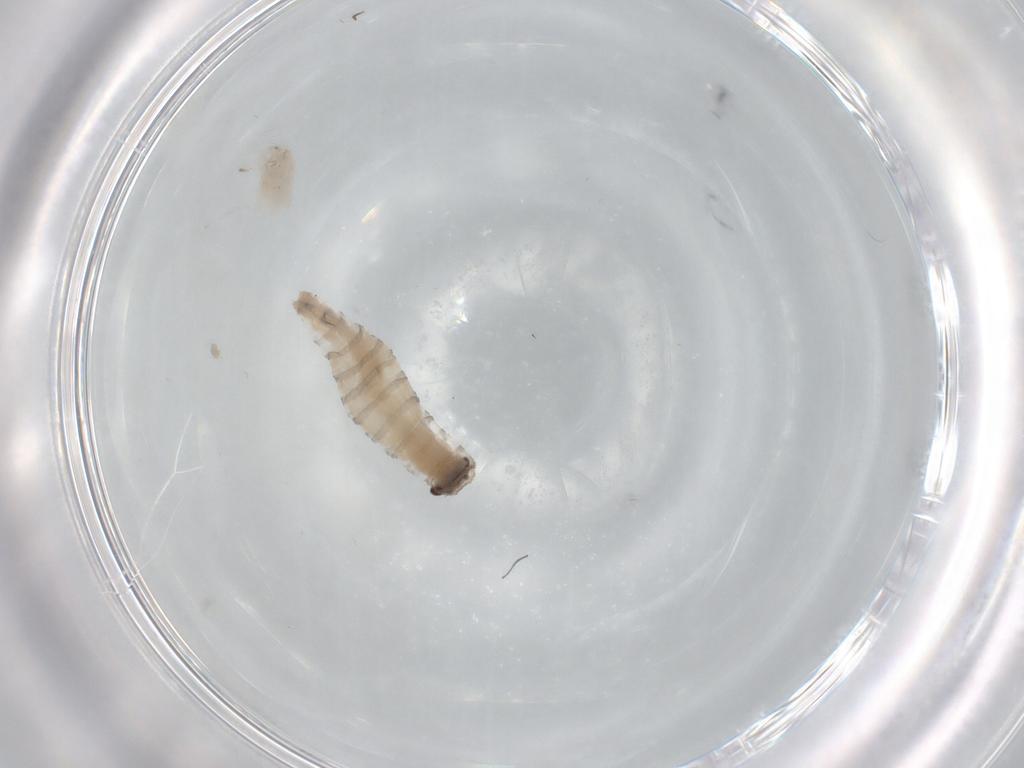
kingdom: Animalia
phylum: Arthropoda
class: Insecta
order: Diptera
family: Sarcophagidae
